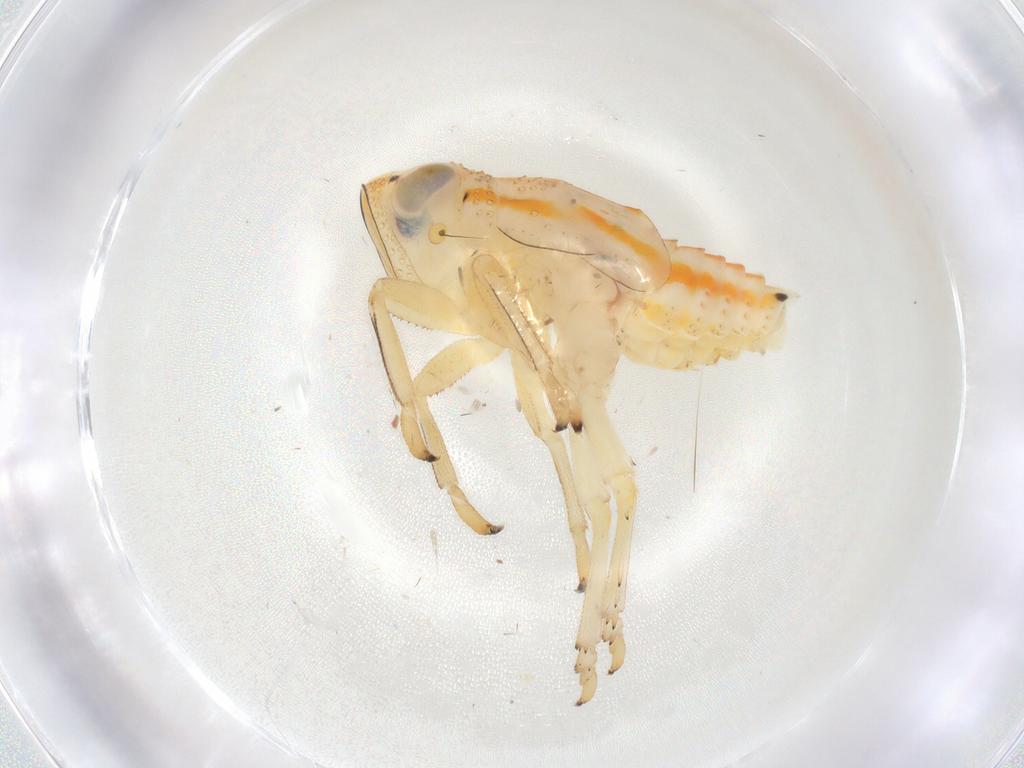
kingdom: Animalia
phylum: Arthropoda
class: Insecta
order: Hemiptera
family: Issidae
